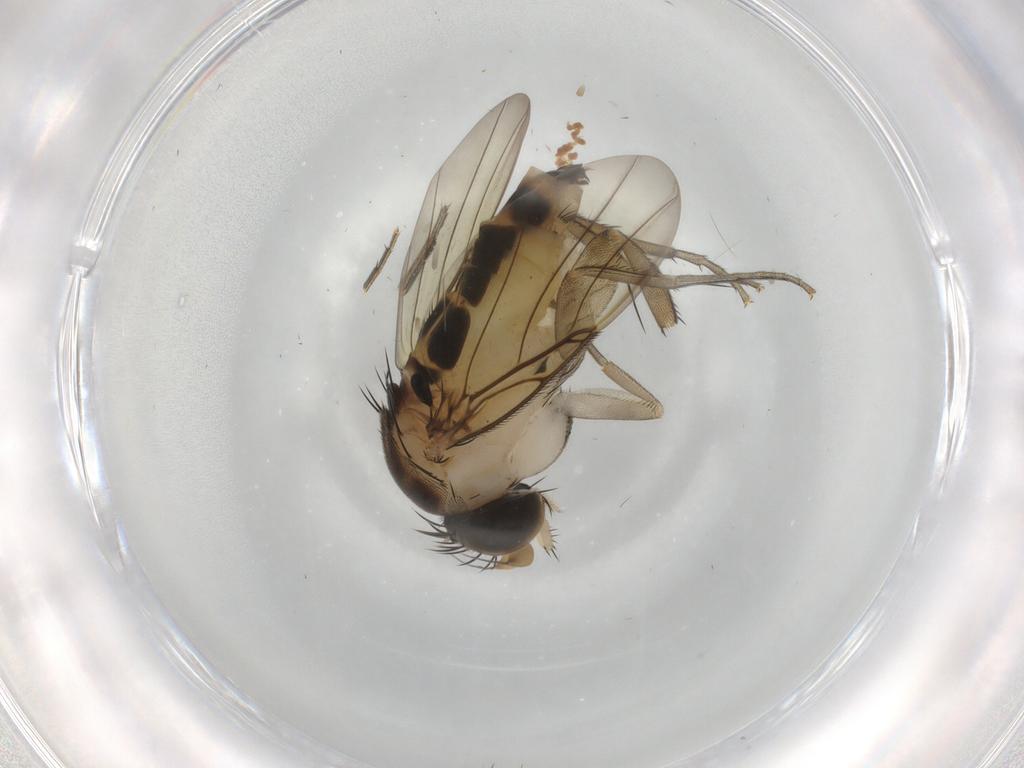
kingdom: Animalia
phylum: Arthropoda
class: Insecta
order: Diptera
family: Phoridae
